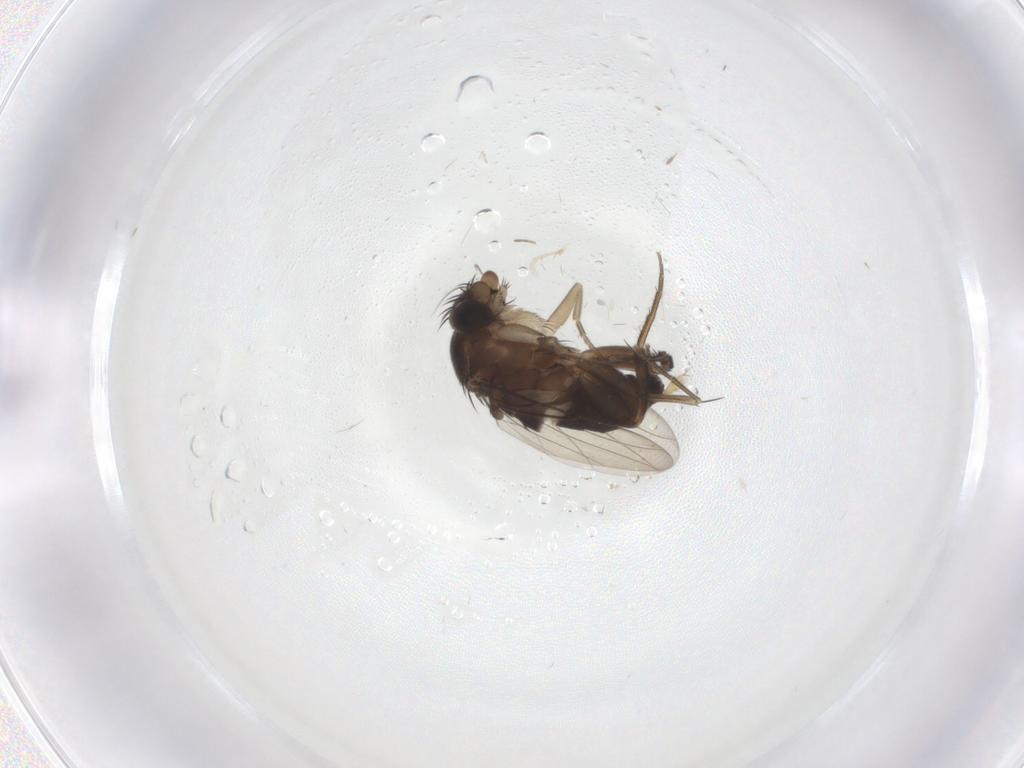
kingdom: Animalia
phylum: Arthropoda
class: Insecta
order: Diptera
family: Phoridae
